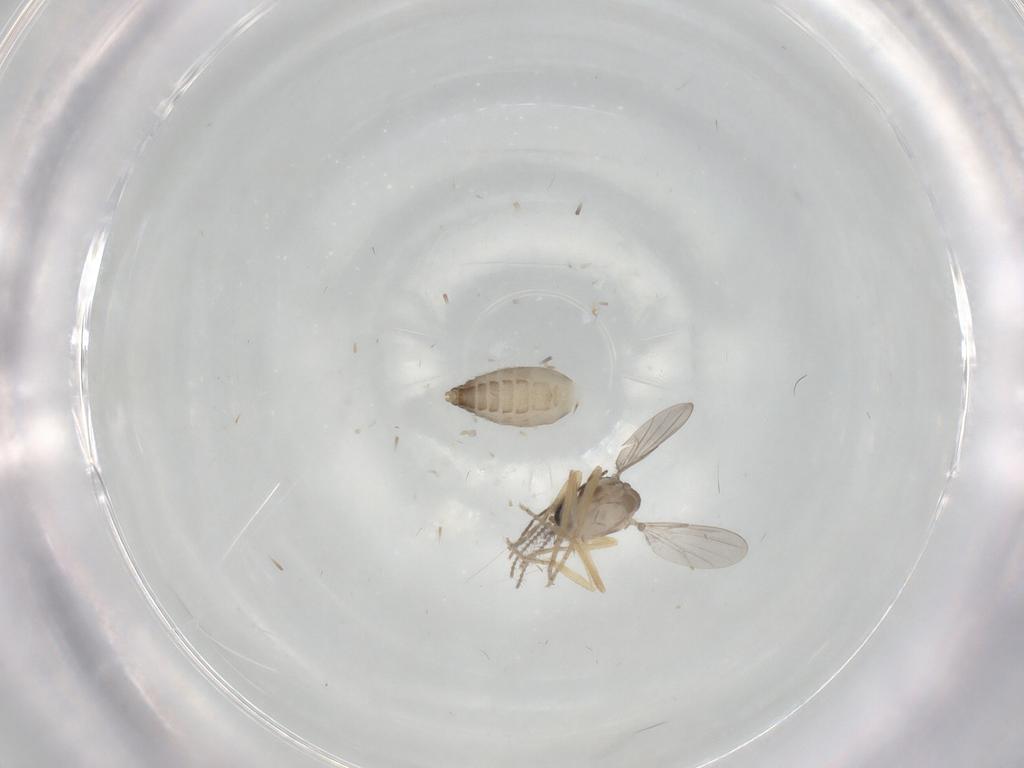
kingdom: Animalia
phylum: Arthropoda
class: Insecta
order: Diptera
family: Ceratopogonidae
